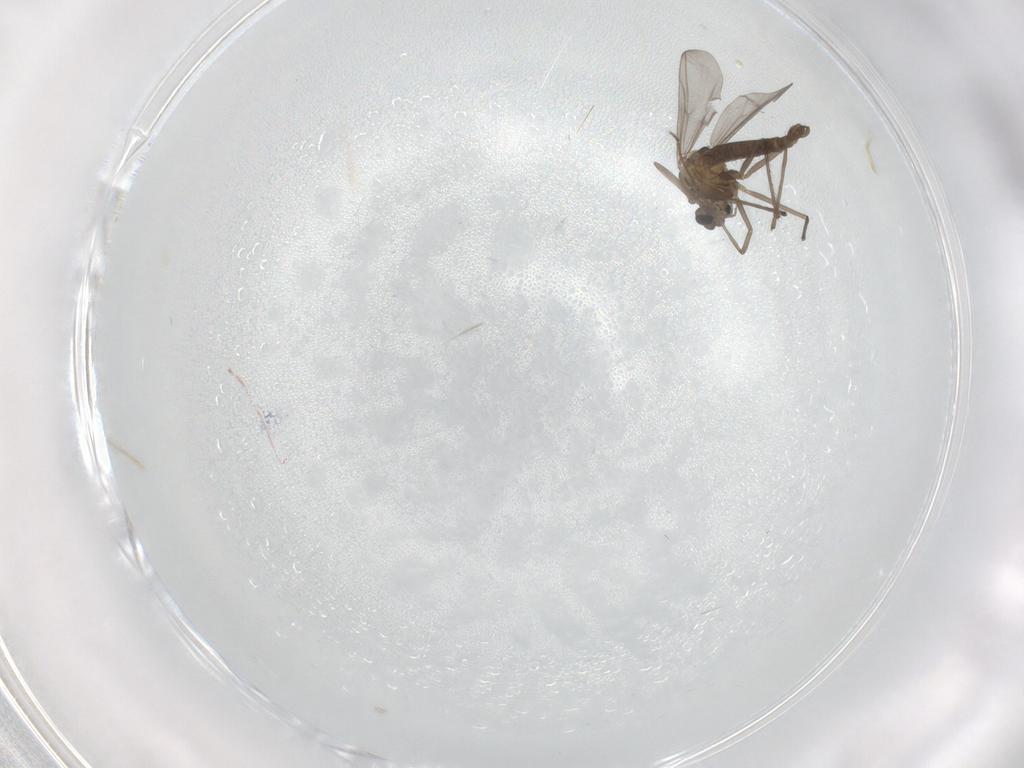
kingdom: Animalia
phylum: Arthropoda
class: Insecta
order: Diptera
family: Chironomidae
